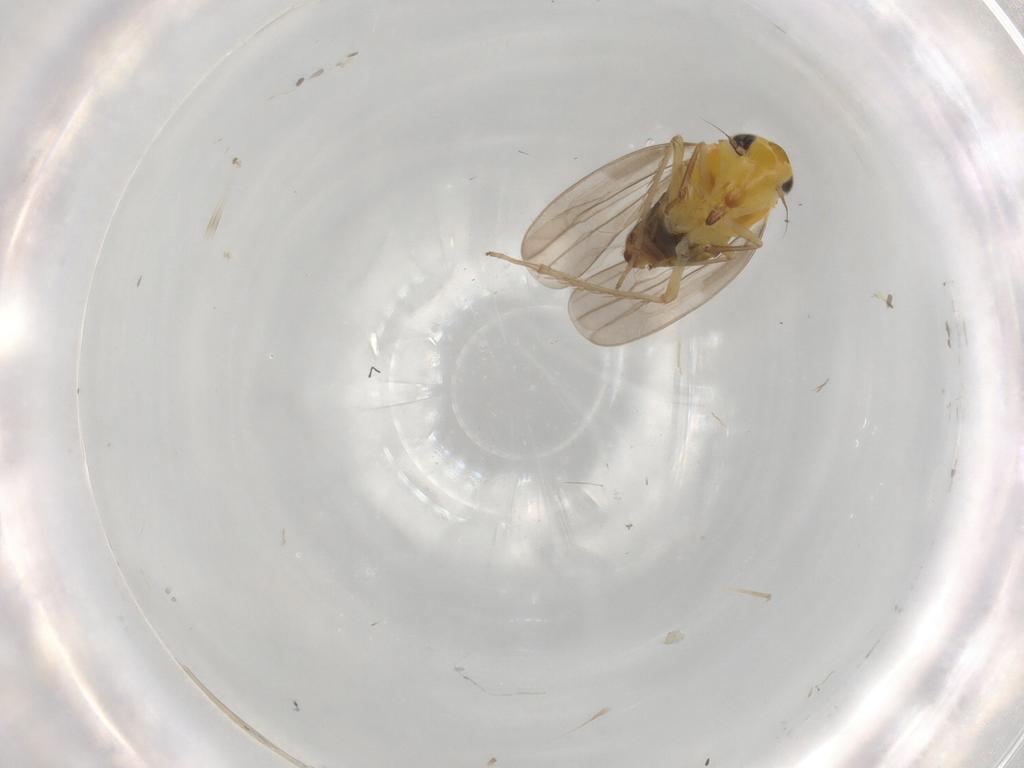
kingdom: Animalia
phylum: Arthropoda
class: Insecta
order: Hemiptera
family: Cicadellidae
